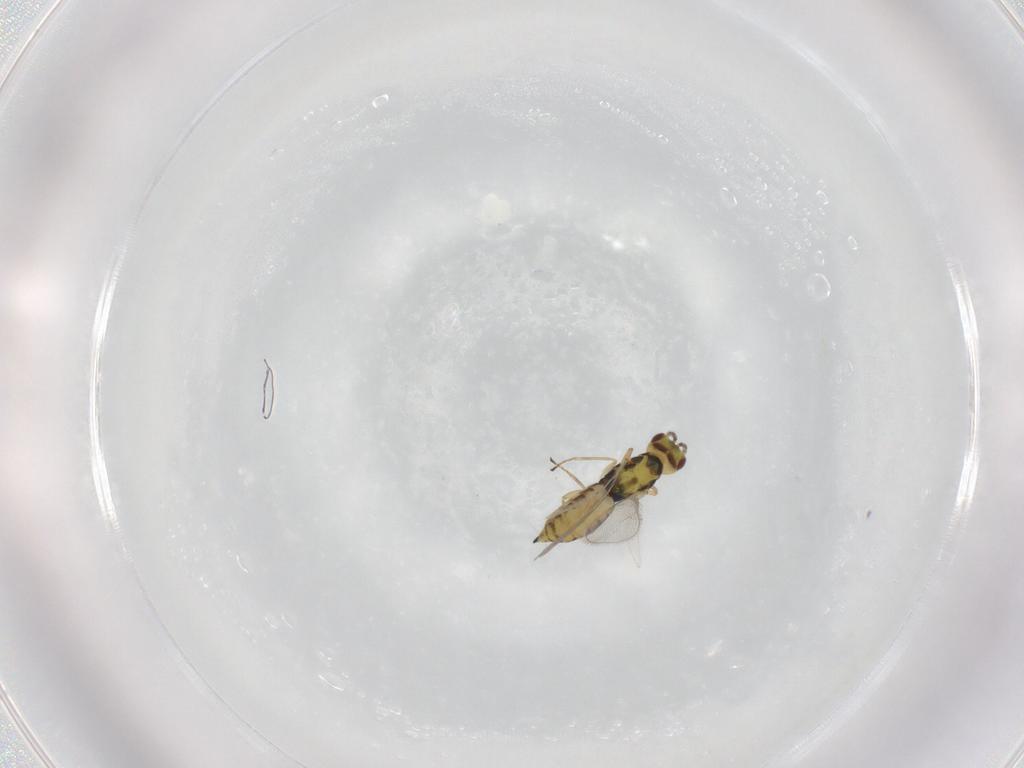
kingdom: Animalia
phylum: Arthropoda
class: Insecta
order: Hymenoptera
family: Eulophidae
